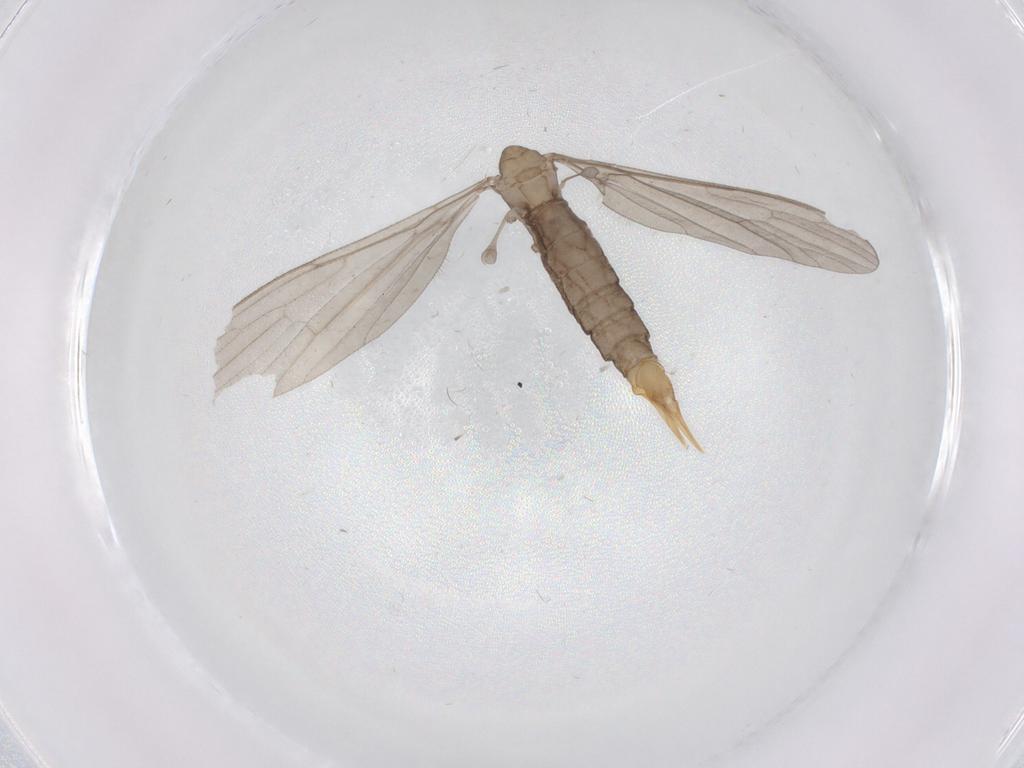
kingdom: Animalia
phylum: Arthropoda
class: Insecta
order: Diptera
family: Limoniidae
